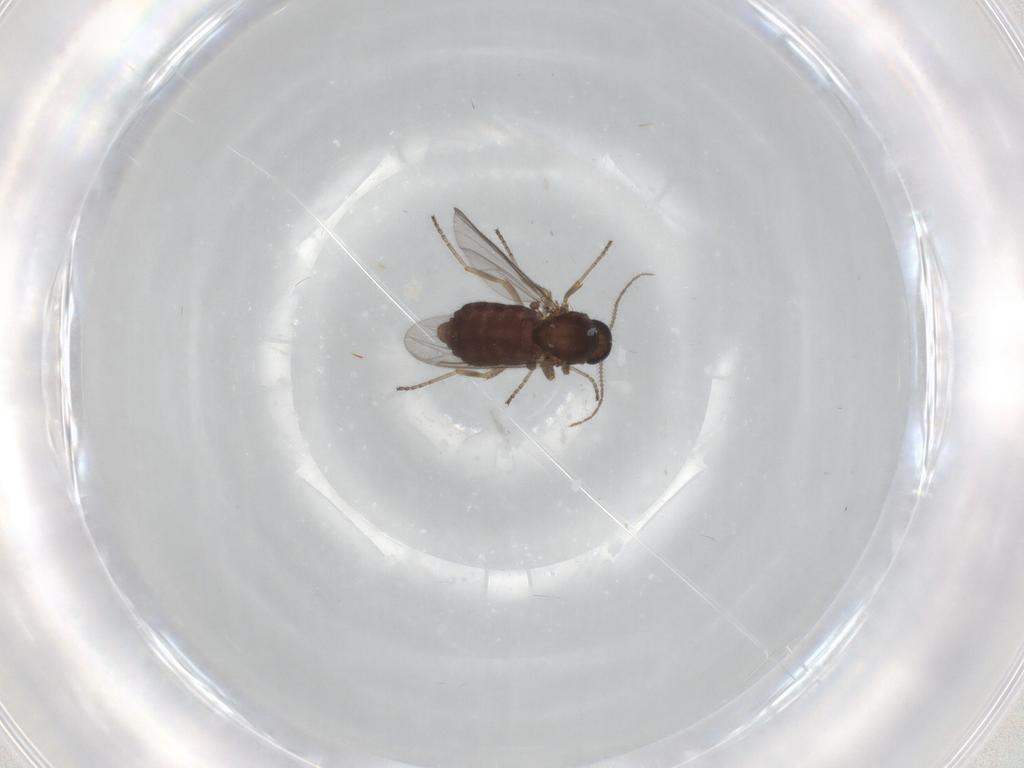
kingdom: Animalia
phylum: Arthropoda
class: Insecta
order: Diptera
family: Ceratopogonidae
